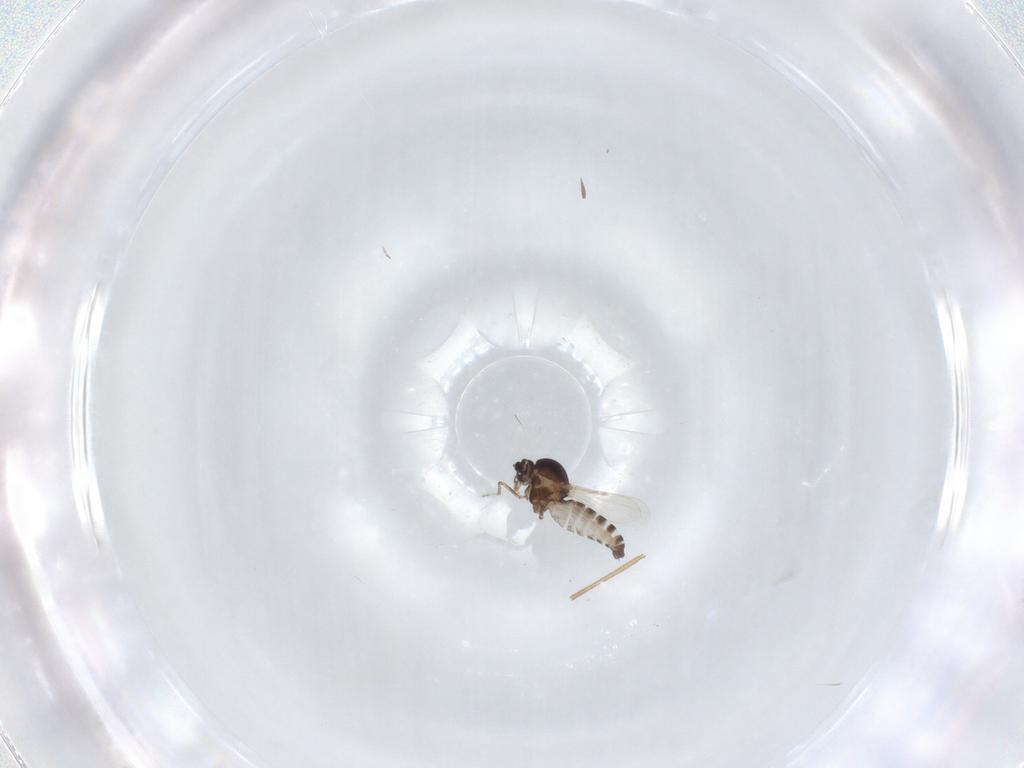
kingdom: Animalia
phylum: Arthropoda
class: Insecta
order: Diptera
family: Ceratopogonidae
